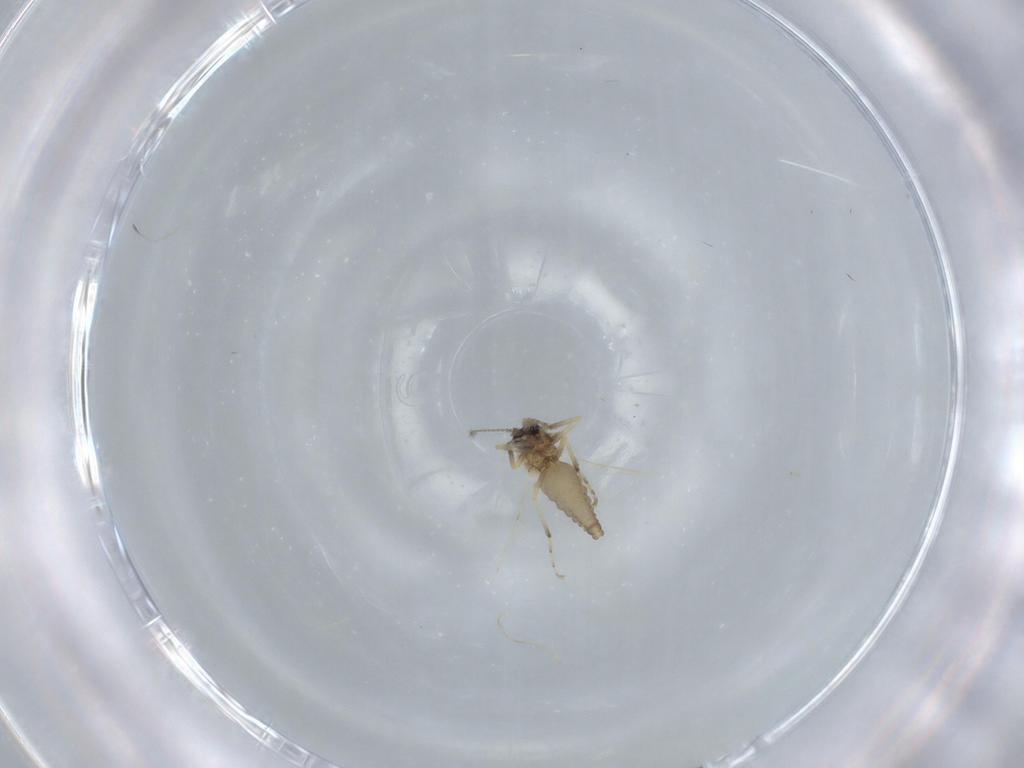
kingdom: Animalia
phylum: Arthropoda
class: Insecta
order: Diptera
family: Ceratopogonidae
